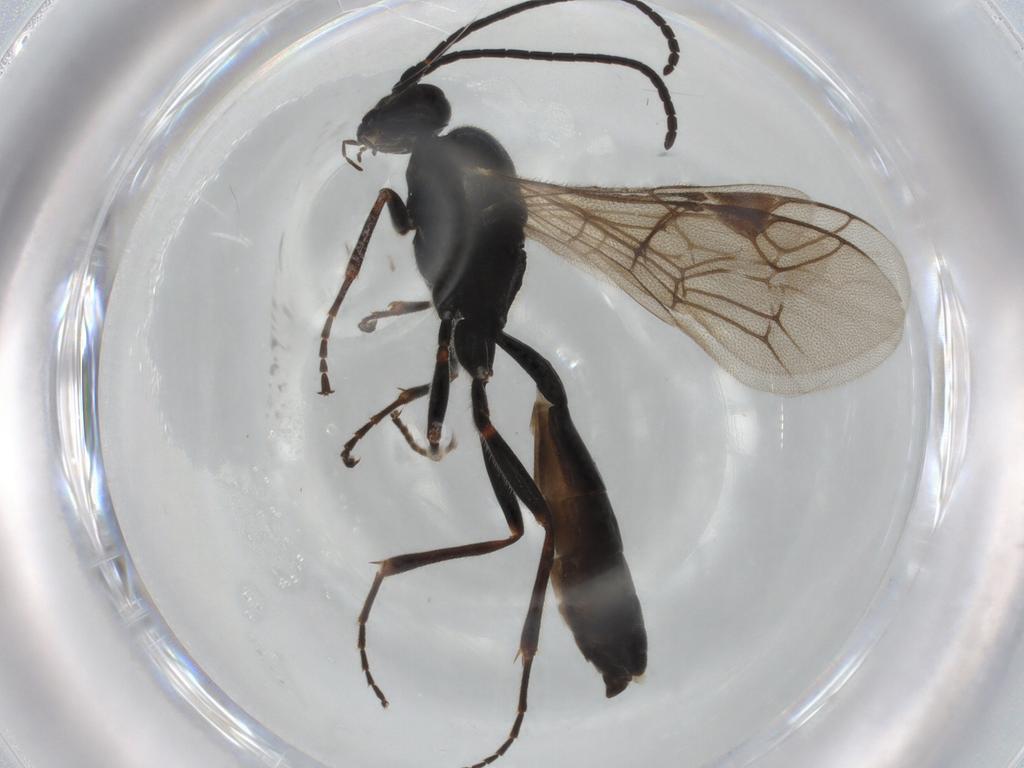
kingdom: Animalia
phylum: Arthropoda
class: Insecta
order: Hymenoptera
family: Ichneumonidae
